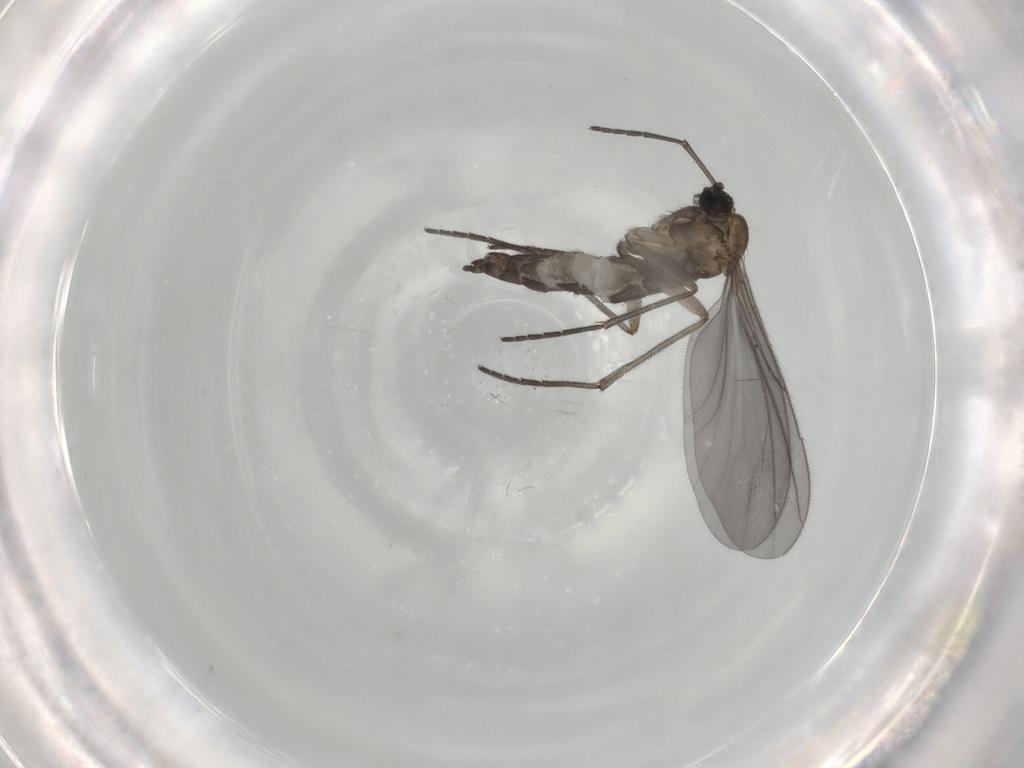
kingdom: Animalia
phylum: Arthropoda
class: Insecta
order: Diptera
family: Sciaridae
